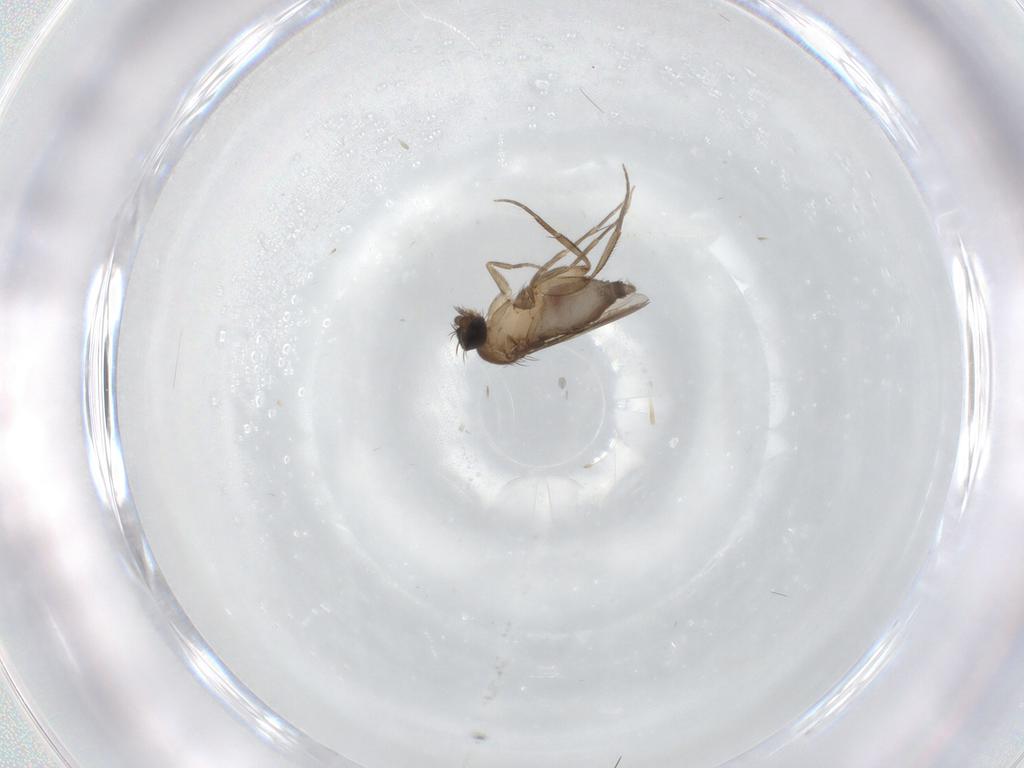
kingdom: Animalia
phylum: Arthropoda
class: Insecta
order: Diptera
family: Phoridae
